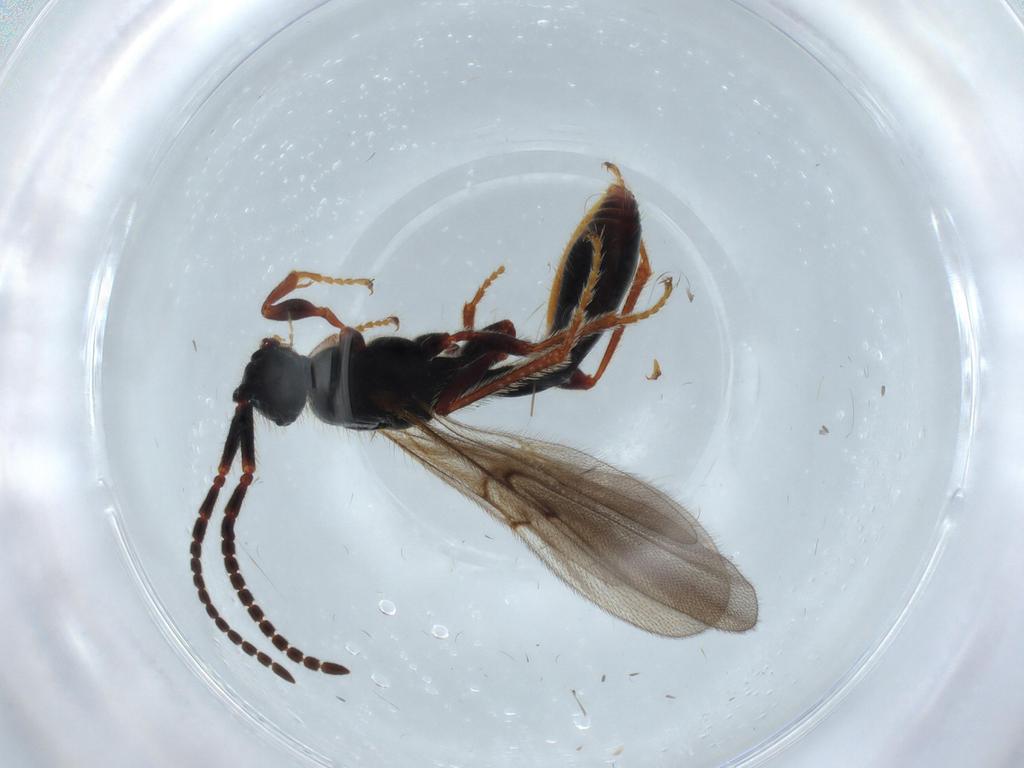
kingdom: Animalia
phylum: Arthropoda
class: Insecta
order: Hymenoptera
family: Diapriidae
